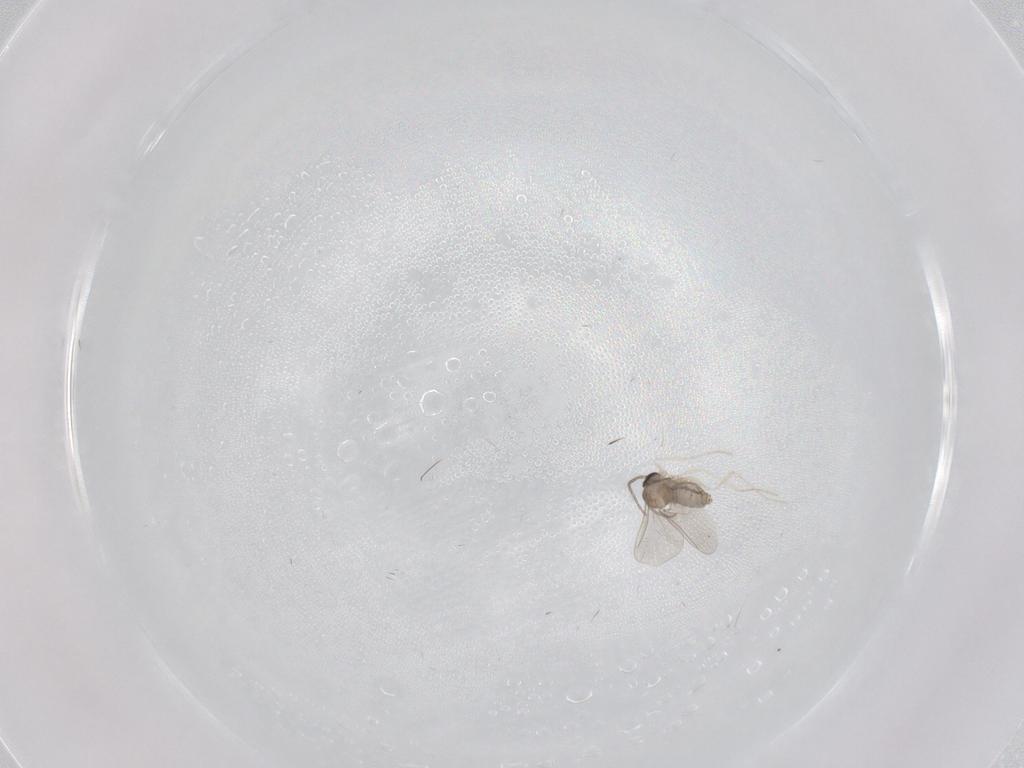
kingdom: Animalia
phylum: Arthropoda
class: Insecta
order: Diptera
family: Cecidomyiidae
